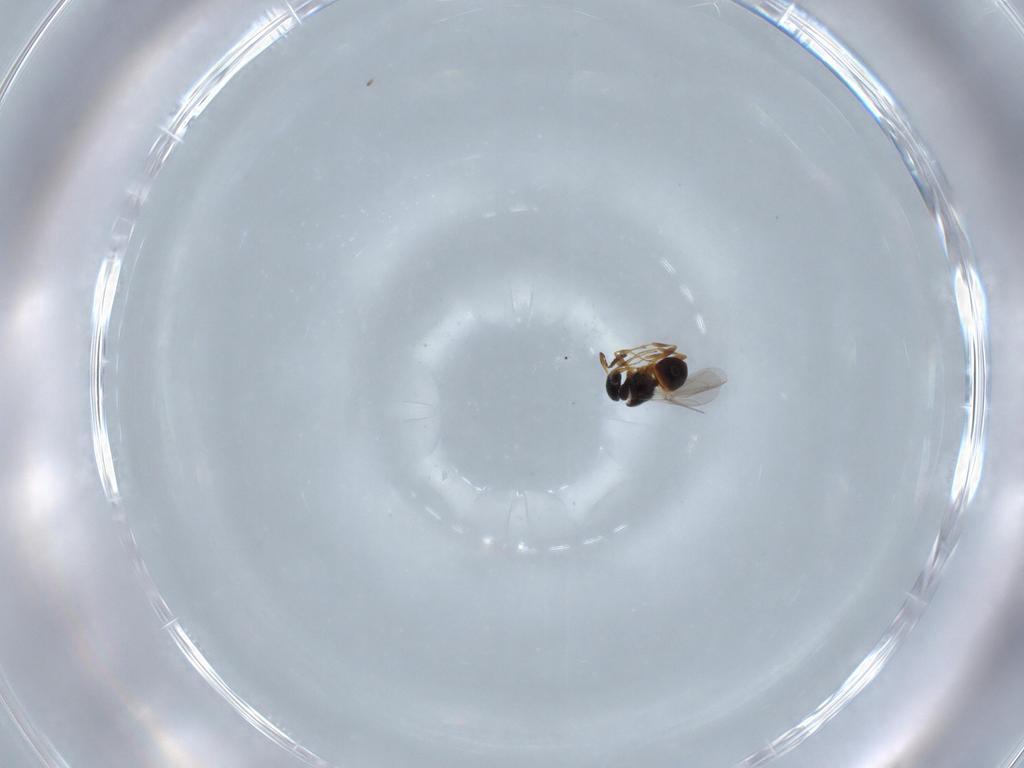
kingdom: Animalia
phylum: Arthropoda
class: Insecta
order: Hymenoptera
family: Platygastridae
